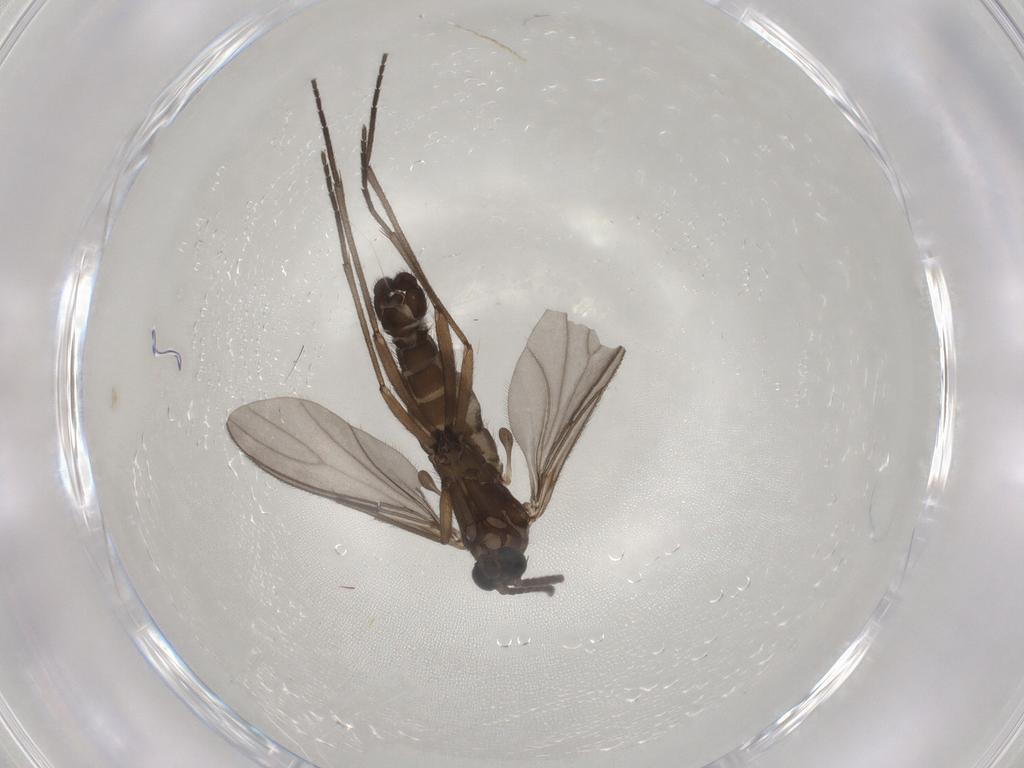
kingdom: Animalia
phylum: Arthropoda
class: Insecta
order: Diptera
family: Sciaridae
